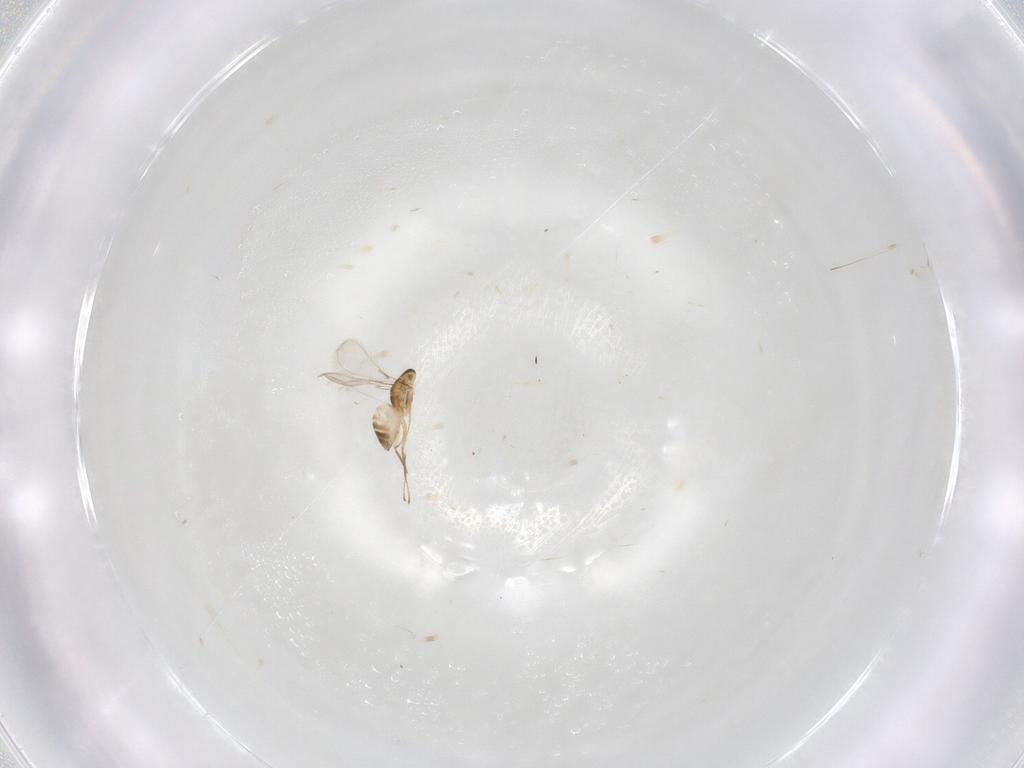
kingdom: Animalia
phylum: Arthropoda
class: Insecta
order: Hymenoptera
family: Mymaridae
